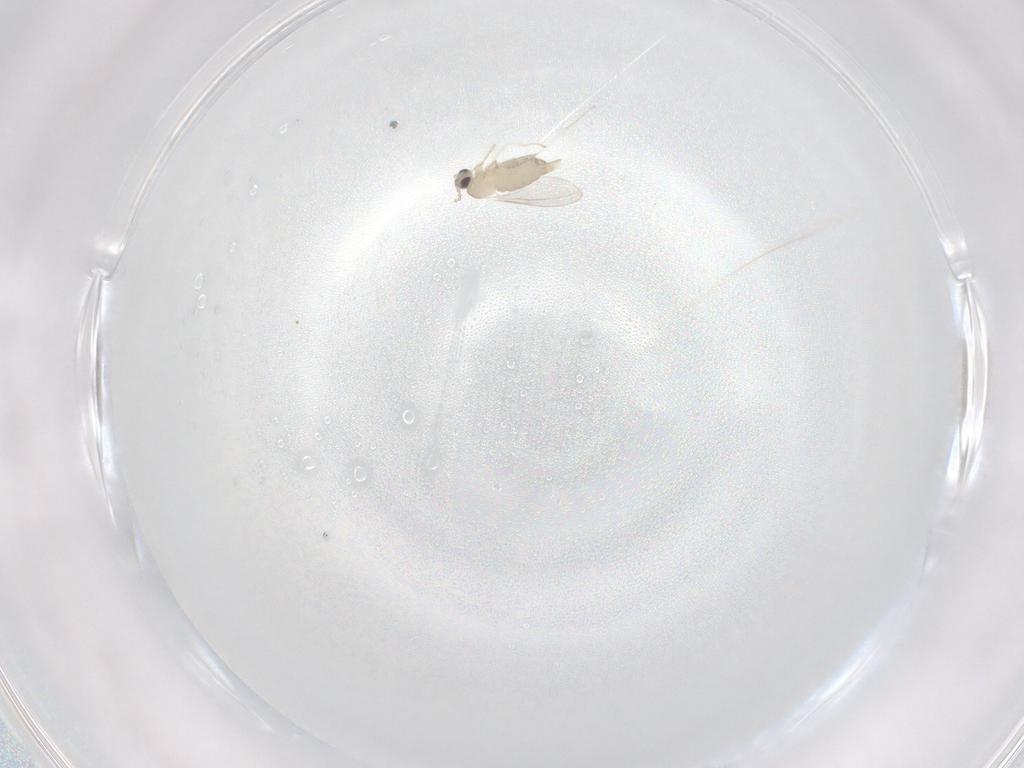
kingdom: Animalia
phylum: Arthropoda
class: Insecta
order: Diptera
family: Cecidomyiidae
